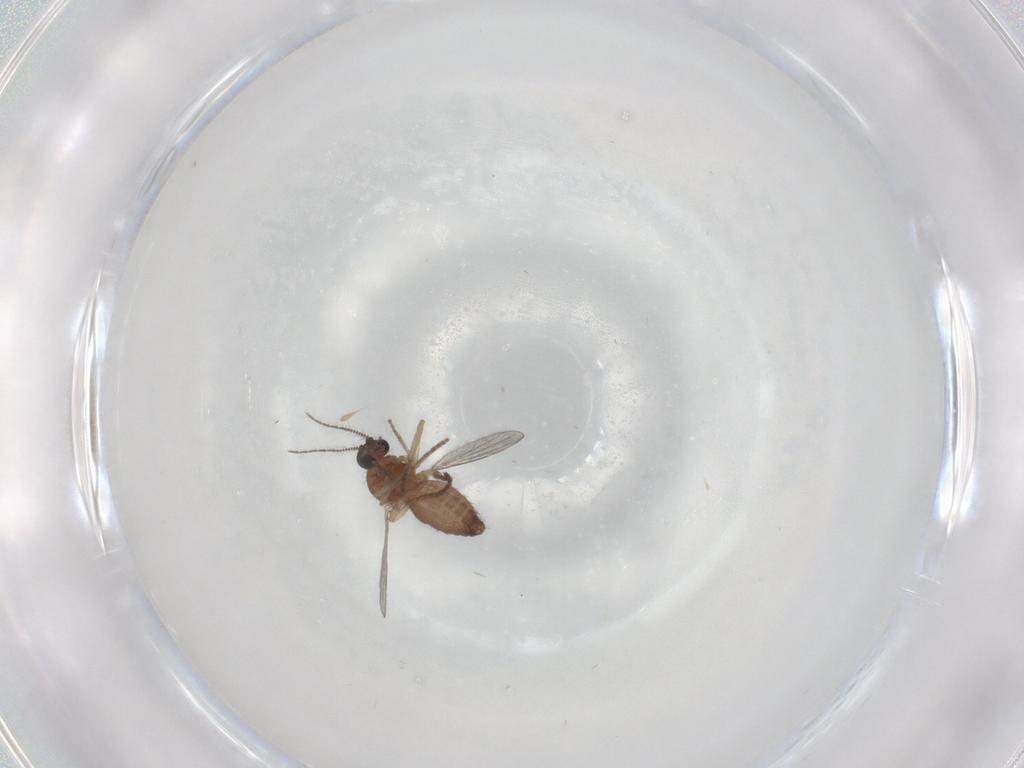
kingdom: Animalia
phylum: Arthropoda
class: Insecta
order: Diptera
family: Ceratopogonidae
